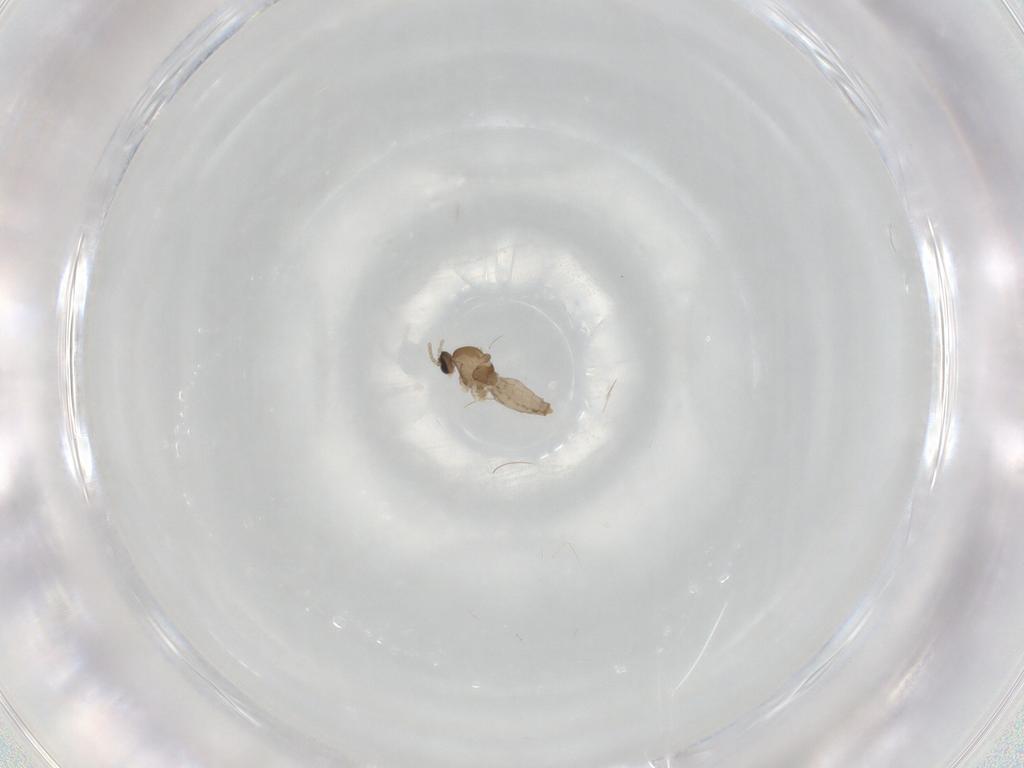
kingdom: Animalia
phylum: Arthropoda
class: Insecta
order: Diptera
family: Cecidomyiidae
